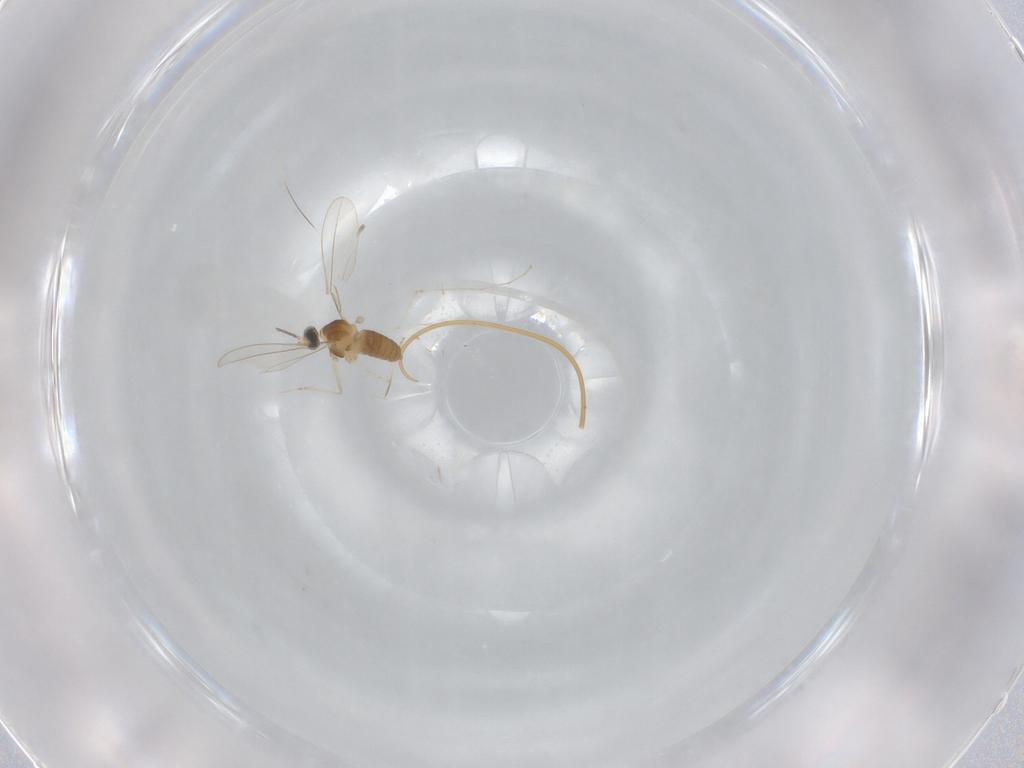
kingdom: Animalia
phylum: Arthropoda
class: Insecta
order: Diptera
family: Cecidomyiidae
